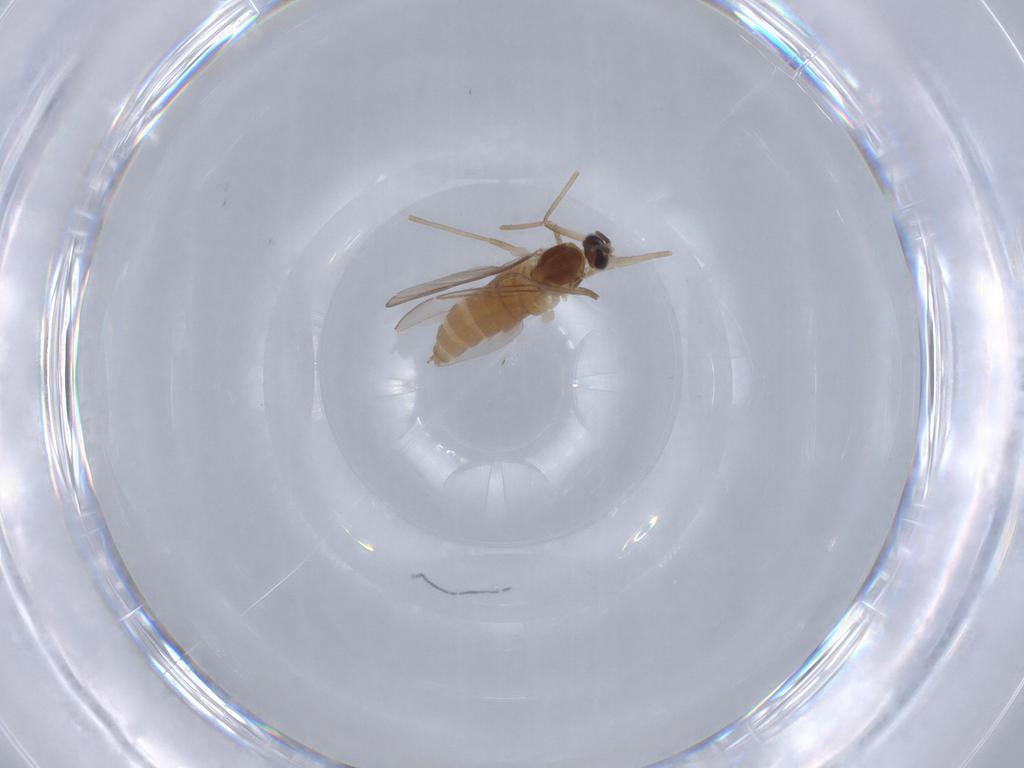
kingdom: Animalia
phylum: Arthropoda
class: Insecta
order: Diptera
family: Cecidomyiidae
